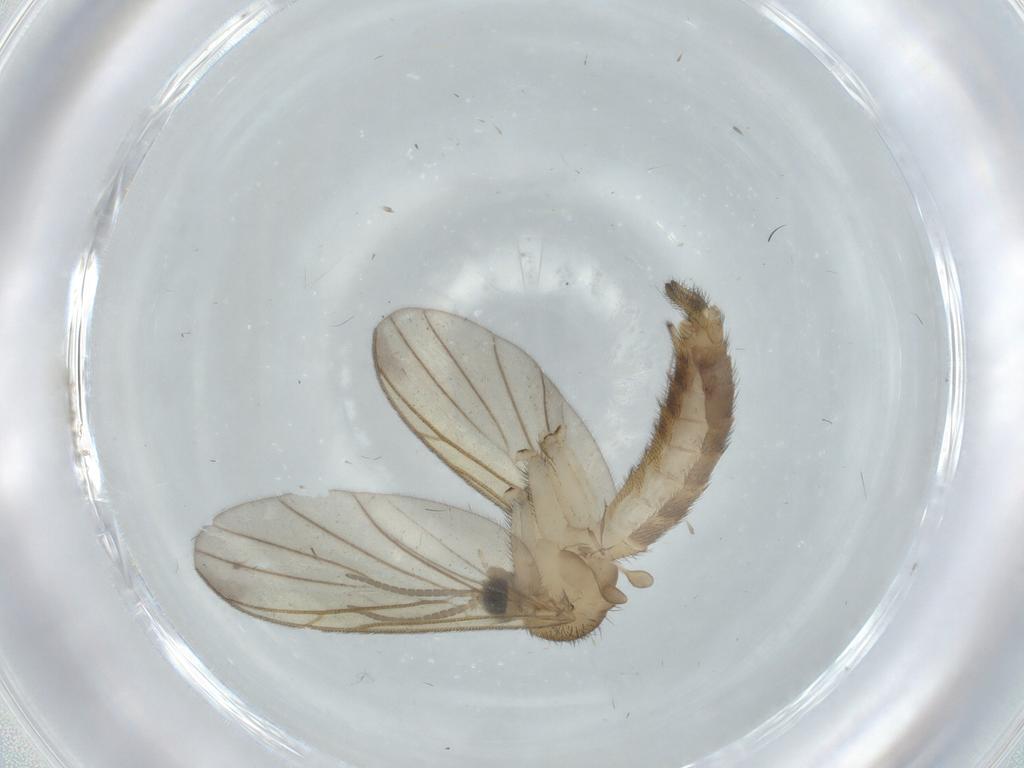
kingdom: Animalia
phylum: Arthropoda
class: Insecta
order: Diptera
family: Keroplatidae
